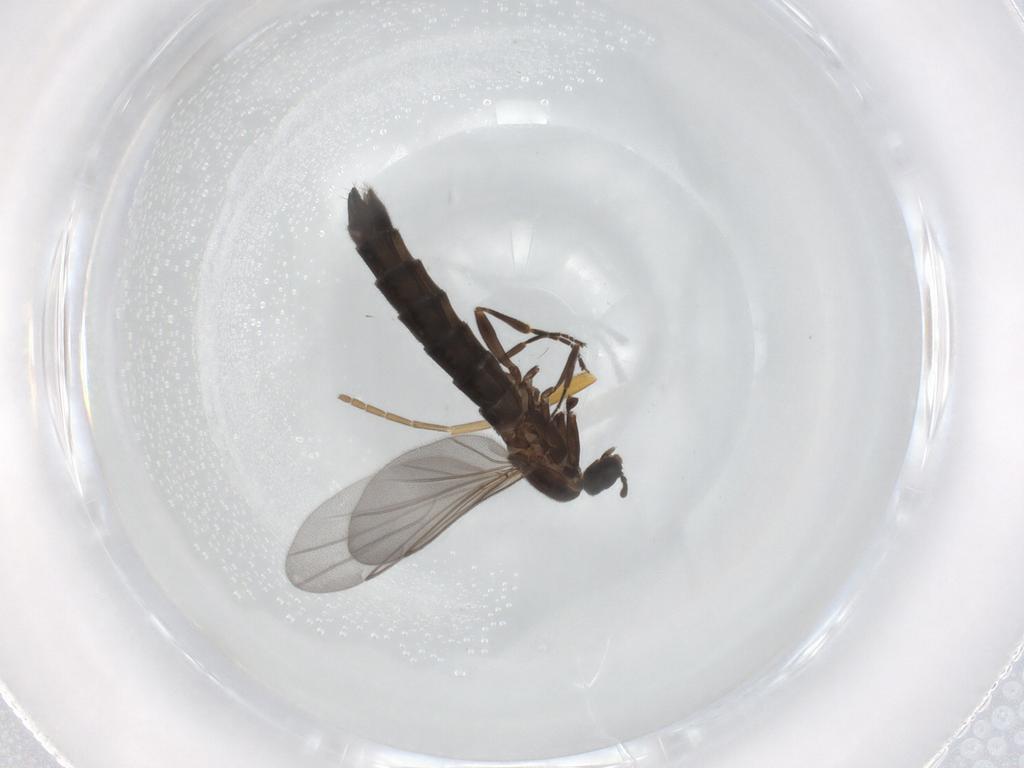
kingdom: Animalia
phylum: Arthropoda
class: Insecta
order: Diptera
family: Scatopsidae
